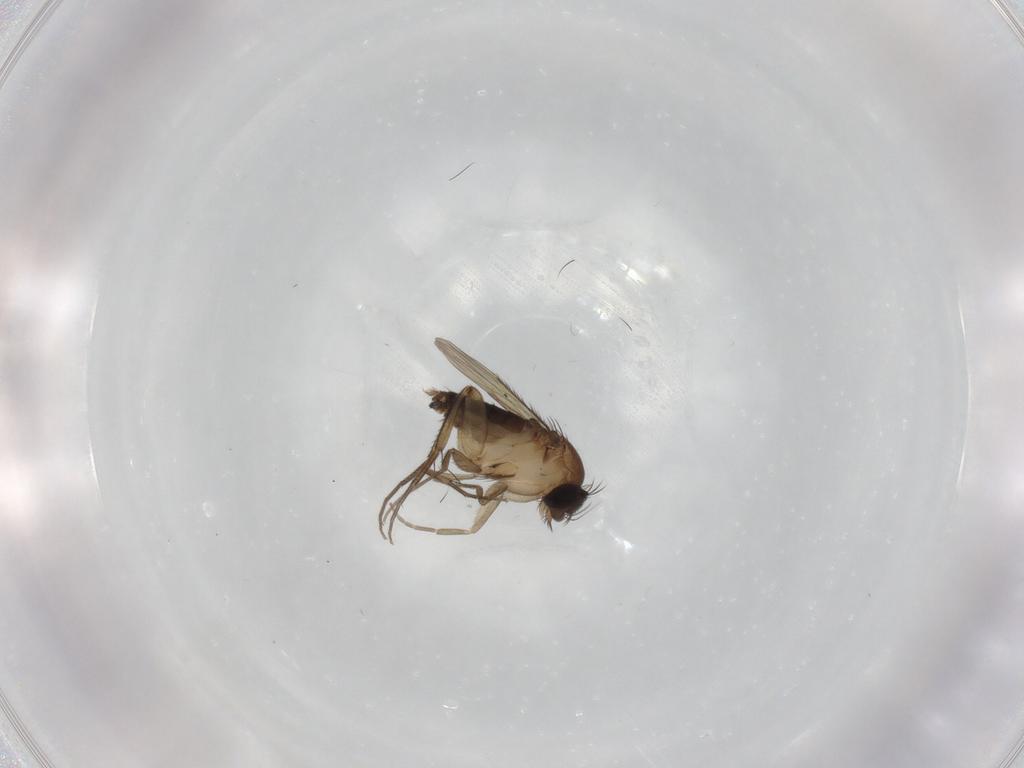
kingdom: Animalia
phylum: Arthropoda
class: Insecta
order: Diptera
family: Phoridae
